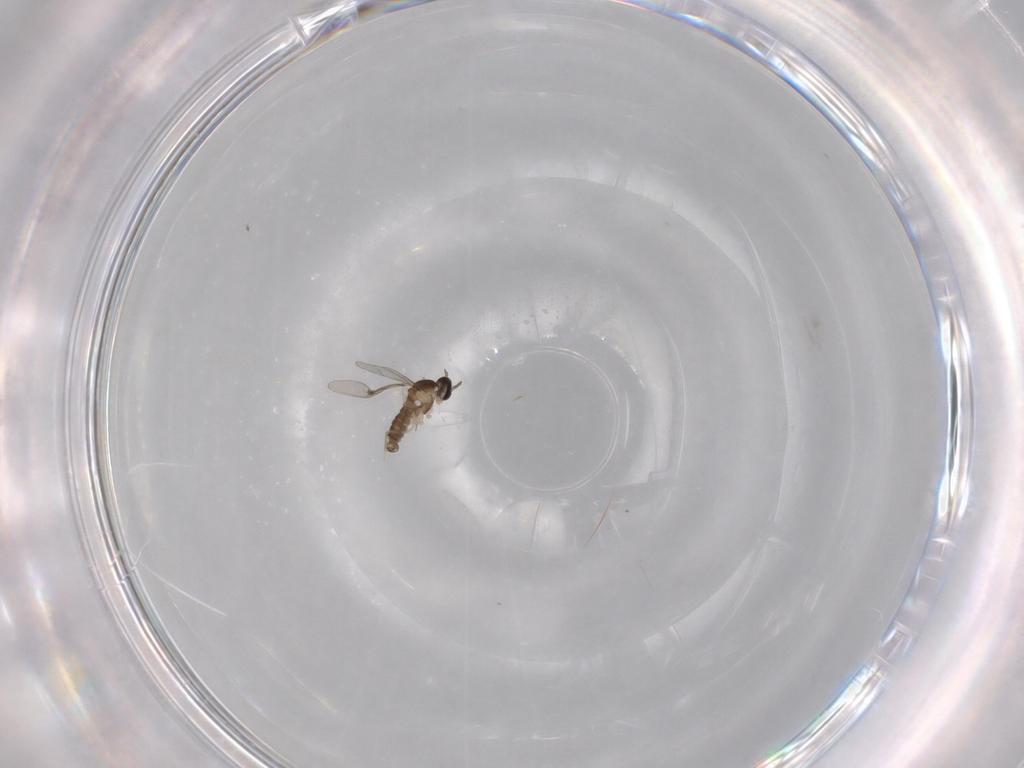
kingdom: Animalia
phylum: Arthropoda
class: Insecta
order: Diptera
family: Cecidomyiidae
